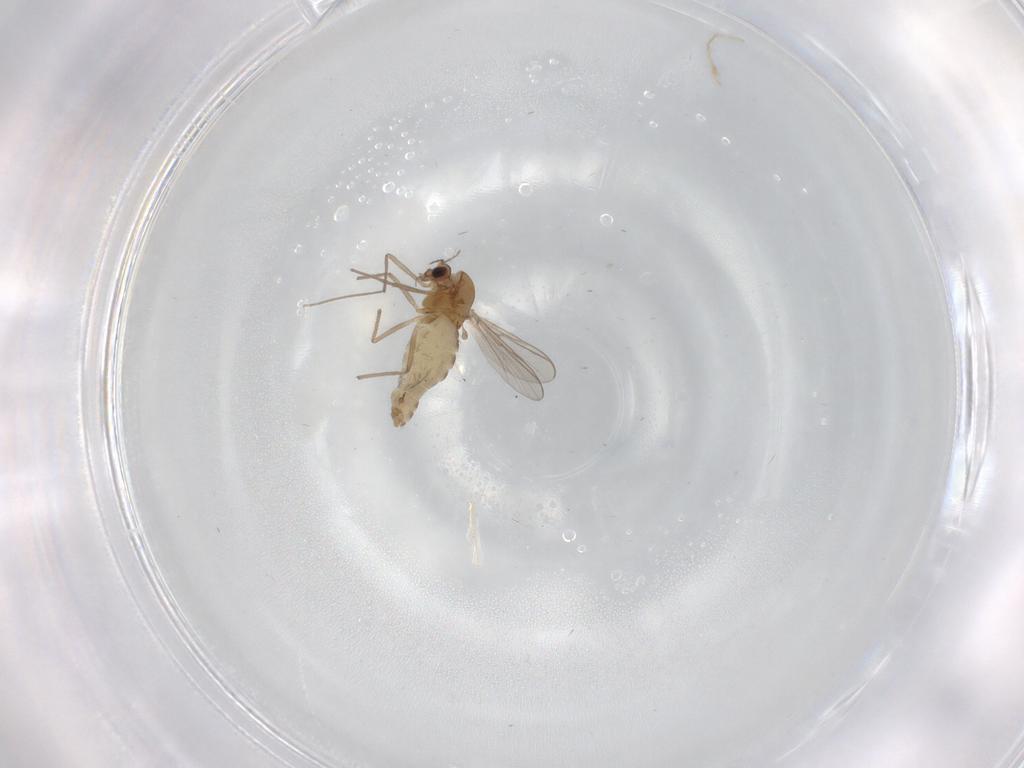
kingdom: Animalia
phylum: Arthropoda
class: Insecta
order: Diptera
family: Chironomidae
